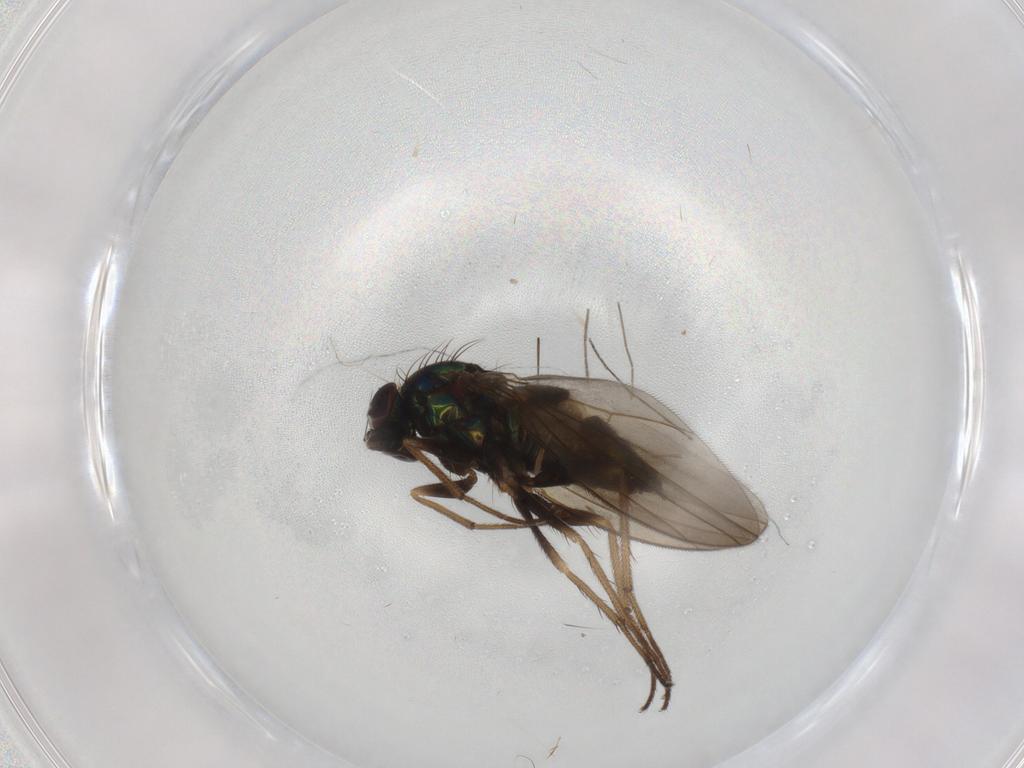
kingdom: Animalia
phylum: Arthropoda
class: Insecta
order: Diptera
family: Dolichopodidae
